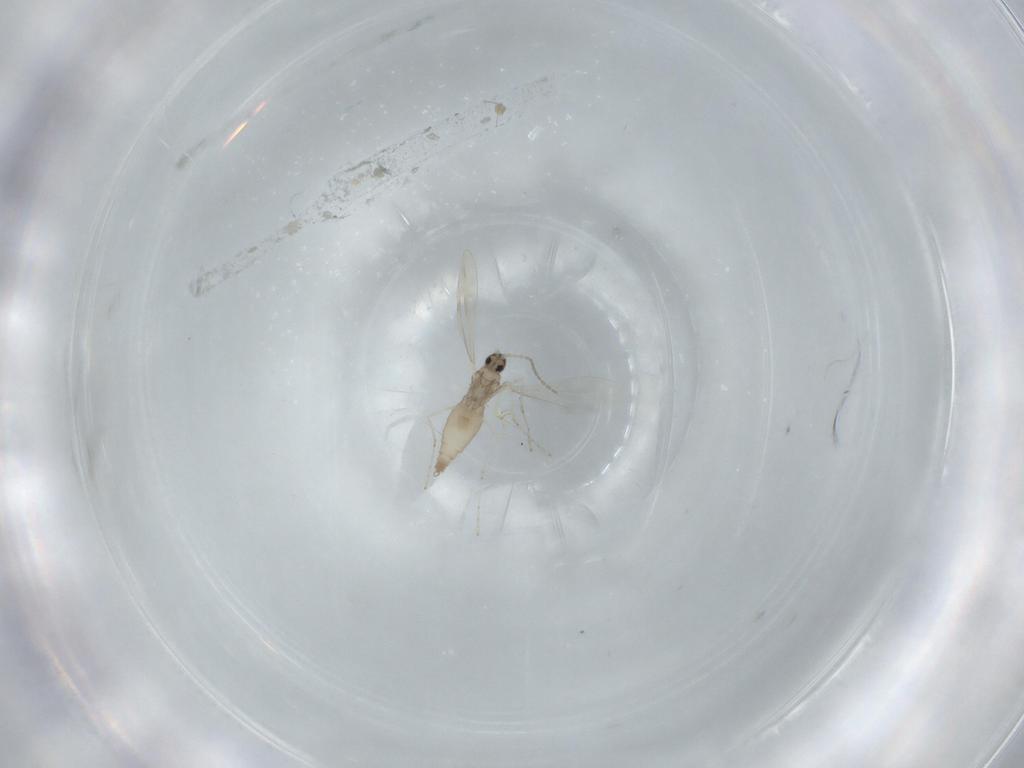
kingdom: Animalia
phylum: Arthropoda
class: Insecta
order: Diptera
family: Cecidomyiidae
